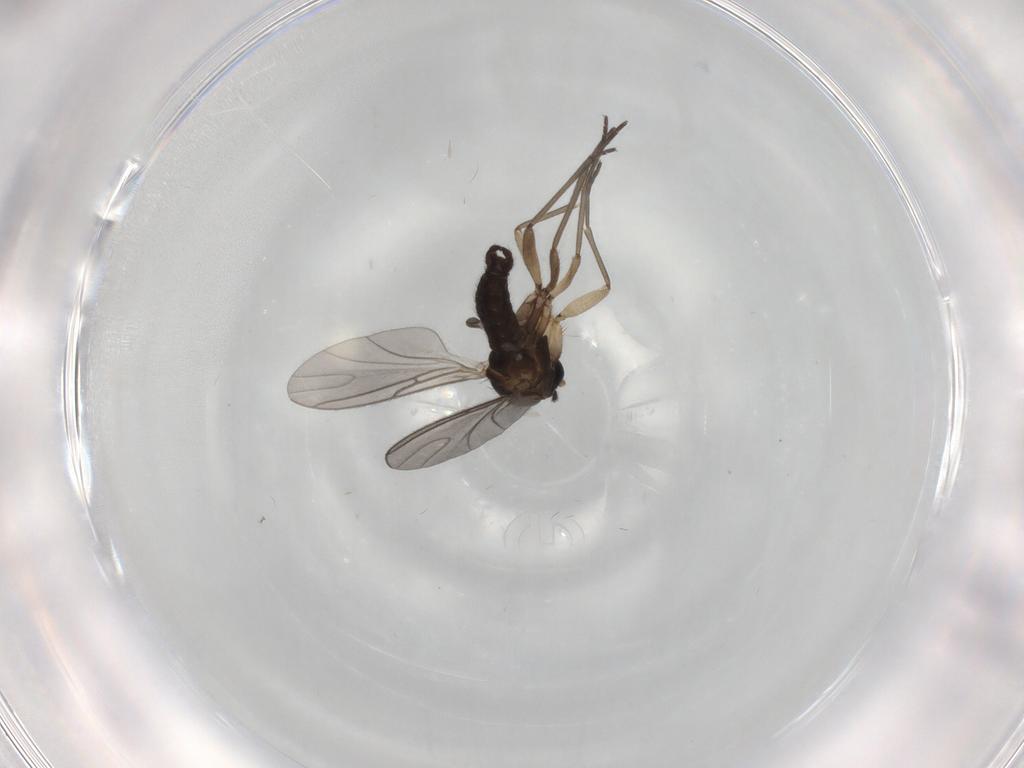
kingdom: Animalia
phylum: Arthropoda
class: Insecta
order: Diptera
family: Sciaridae
